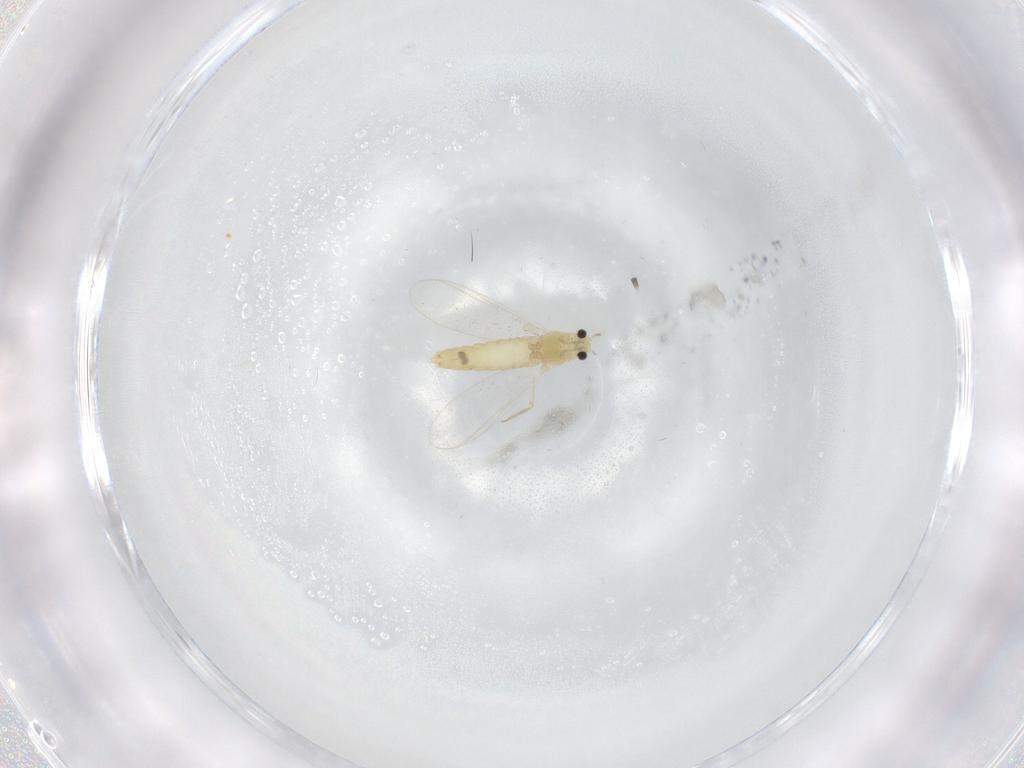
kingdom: Animalia
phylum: Arthropoda
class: Insecta
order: Diptera
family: Chironomidae
